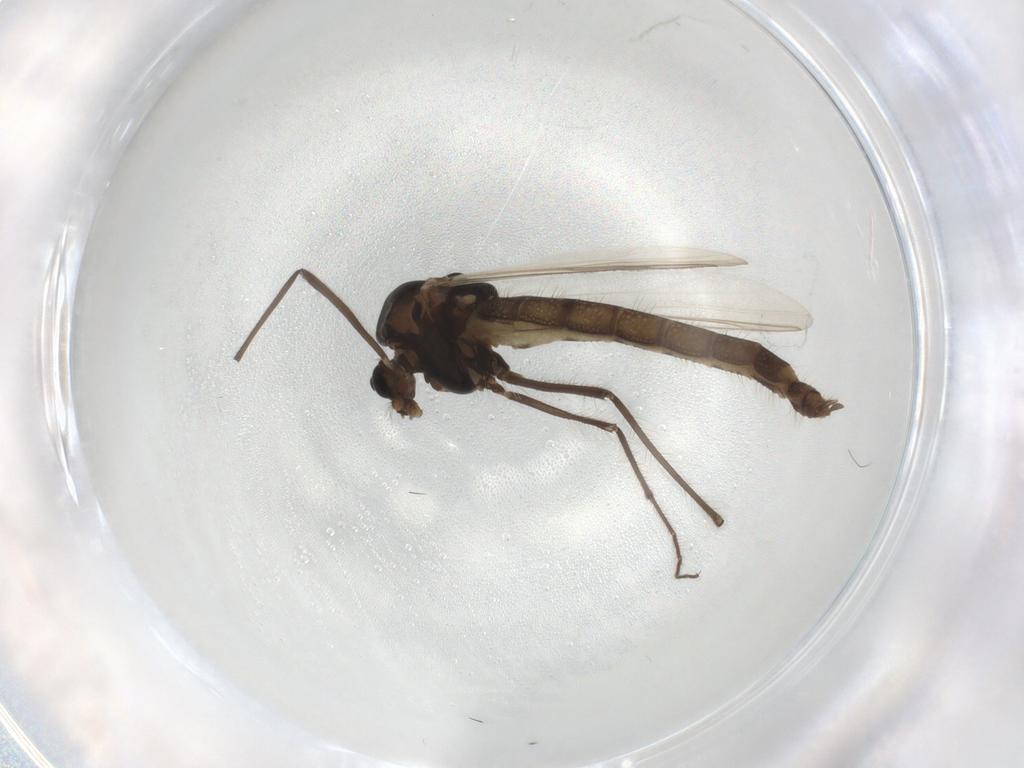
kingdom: Animalia
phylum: Arthropoda
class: Insecta
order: Diptera
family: Chironomidae
